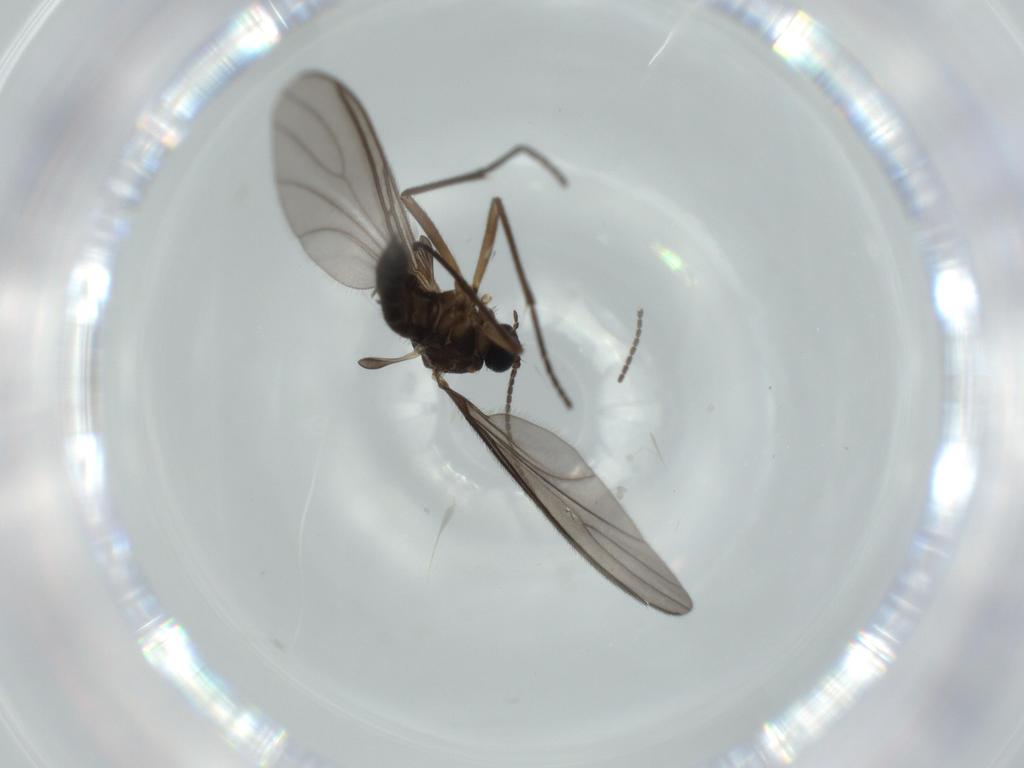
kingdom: Animalia
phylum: Arthropoda
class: Insecta
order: Diptera
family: Sciaridae
